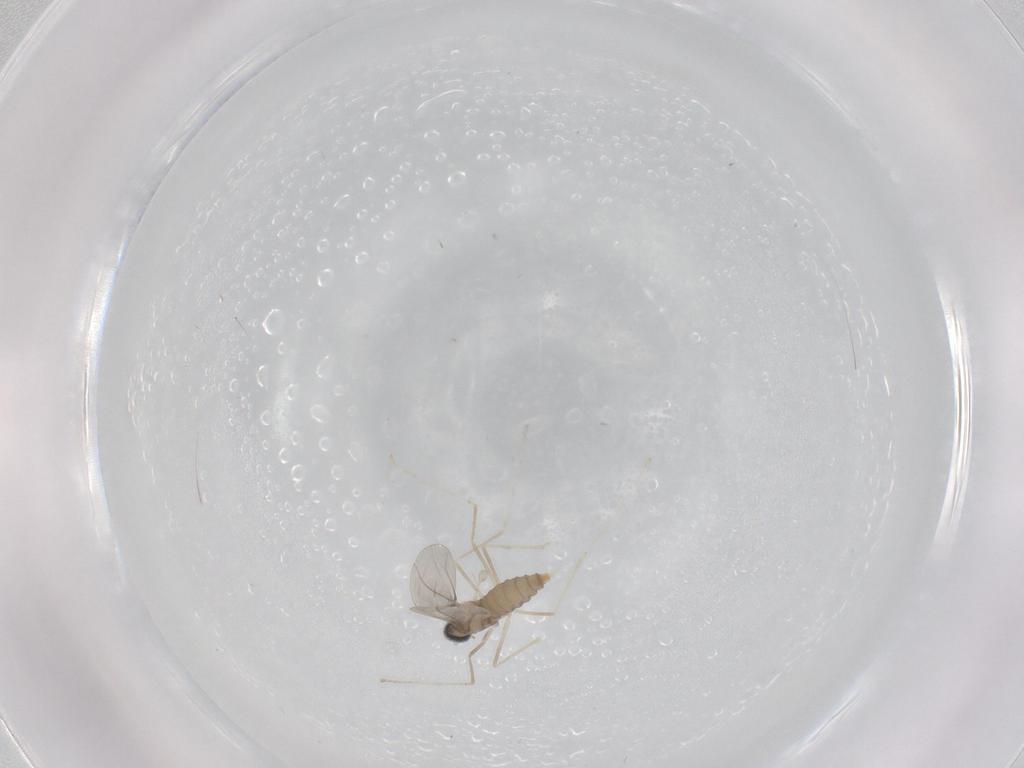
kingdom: Animalia
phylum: Arthropoda
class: Insecta
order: Diptera
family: Cecidomyiidae
